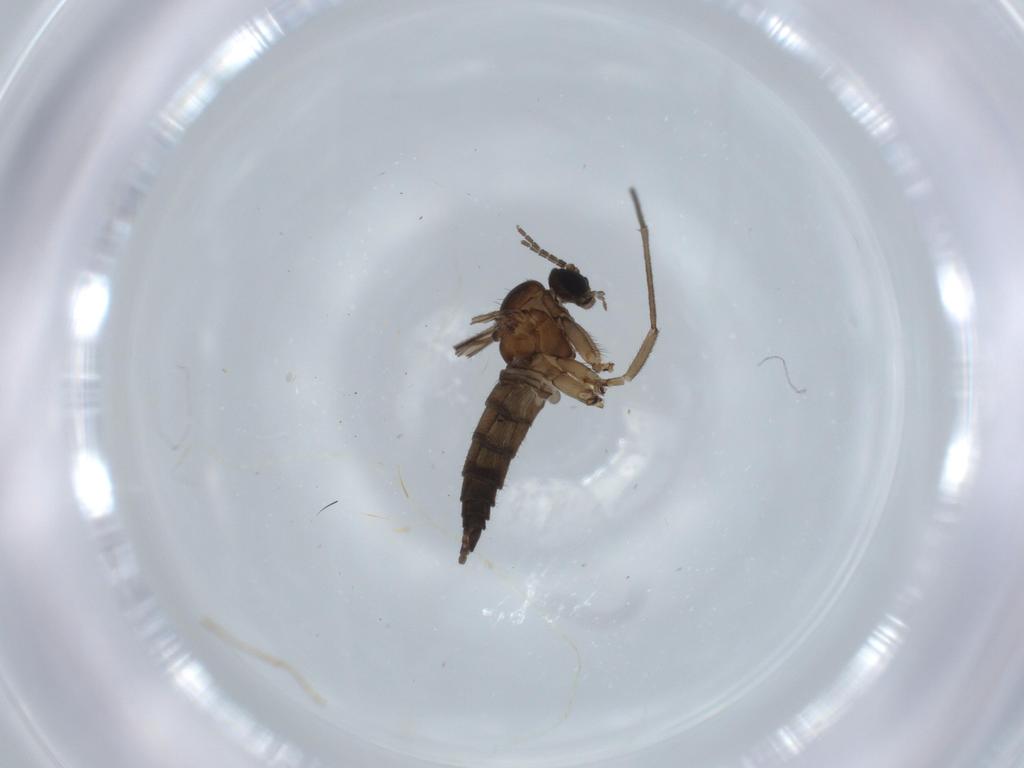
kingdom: Animalia
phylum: Arthropoda
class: Insecta
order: Diptera
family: Sciaridae
